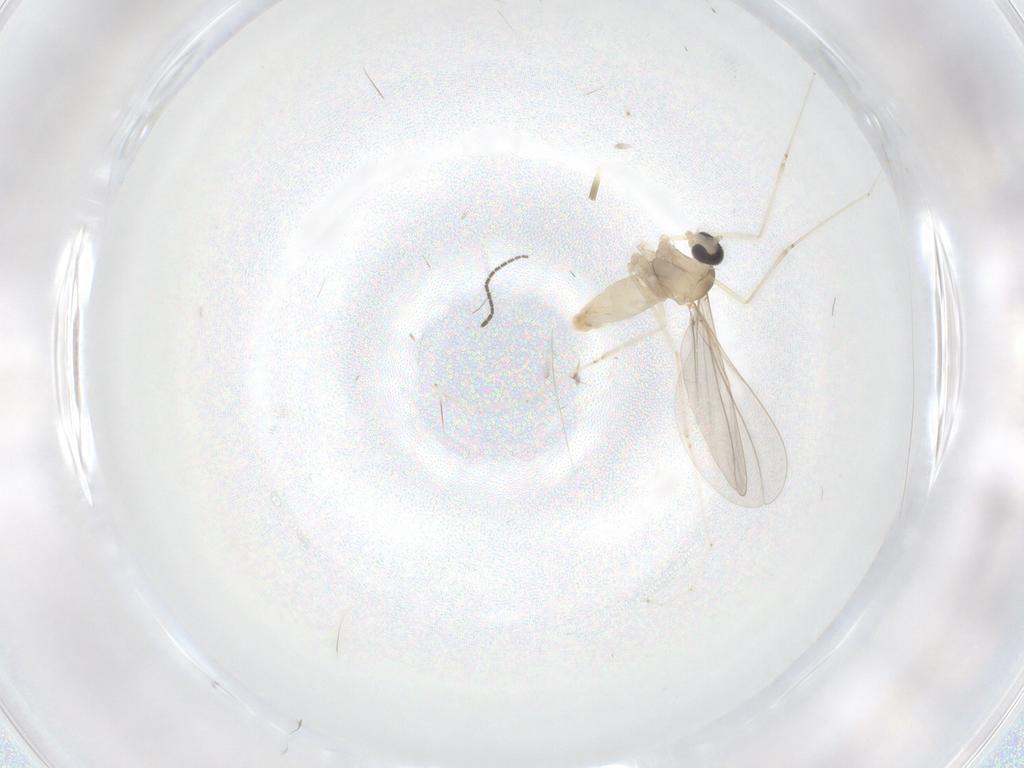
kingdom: Animalia
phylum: Arthropoda
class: Insecta
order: Diptera
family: Sciaridae
